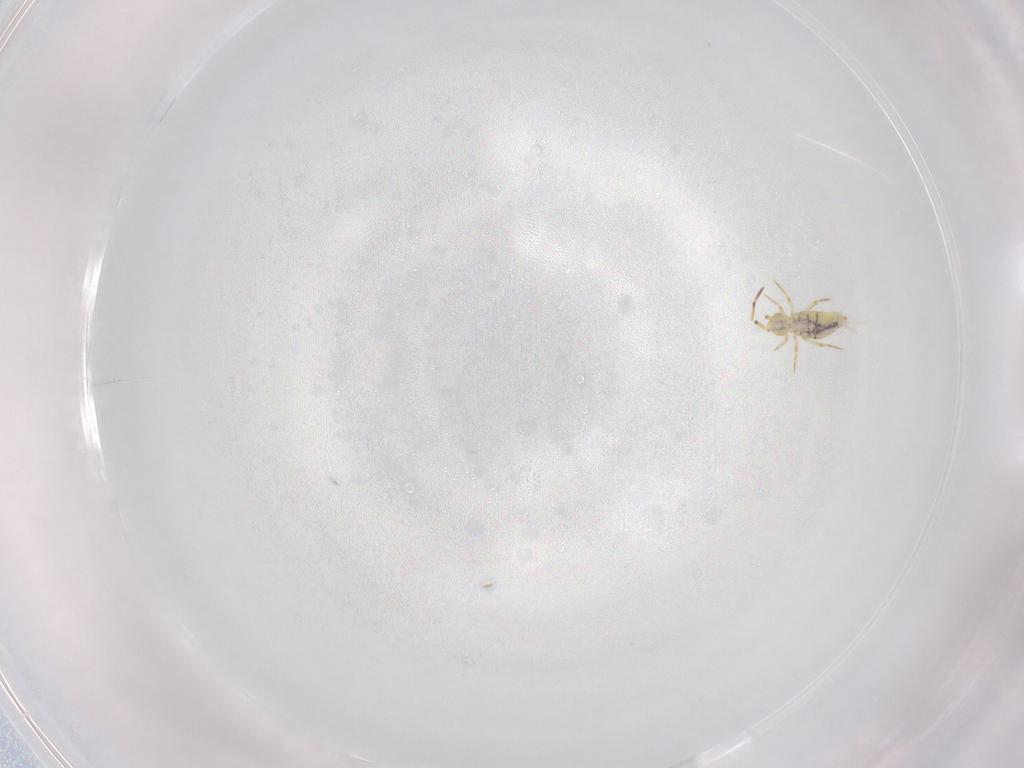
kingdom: Animalia
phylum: Arthropoda
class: Collembola
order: Entomobryomorpha
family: Entomobryidae
